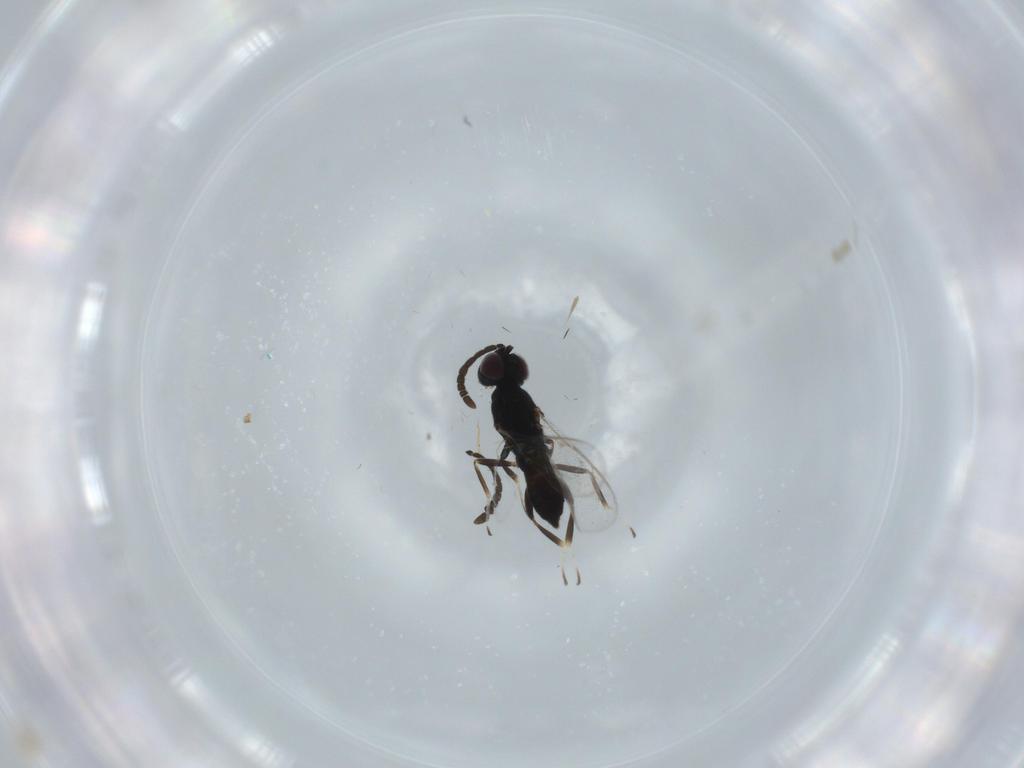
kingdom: Animalia
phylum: Arthropoda
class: Insecta
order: Hymenoptera
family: Eupelmidae
